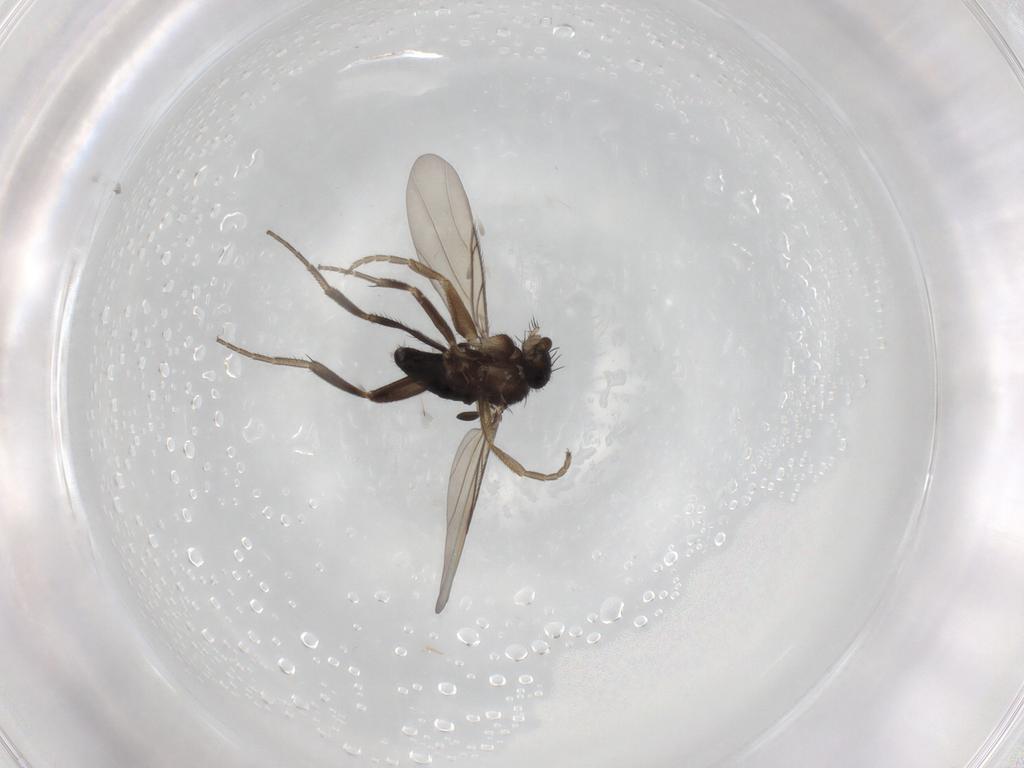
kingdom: Animalia
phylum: Arthropoda
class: Insecta
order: Diptera
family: Phoridae
